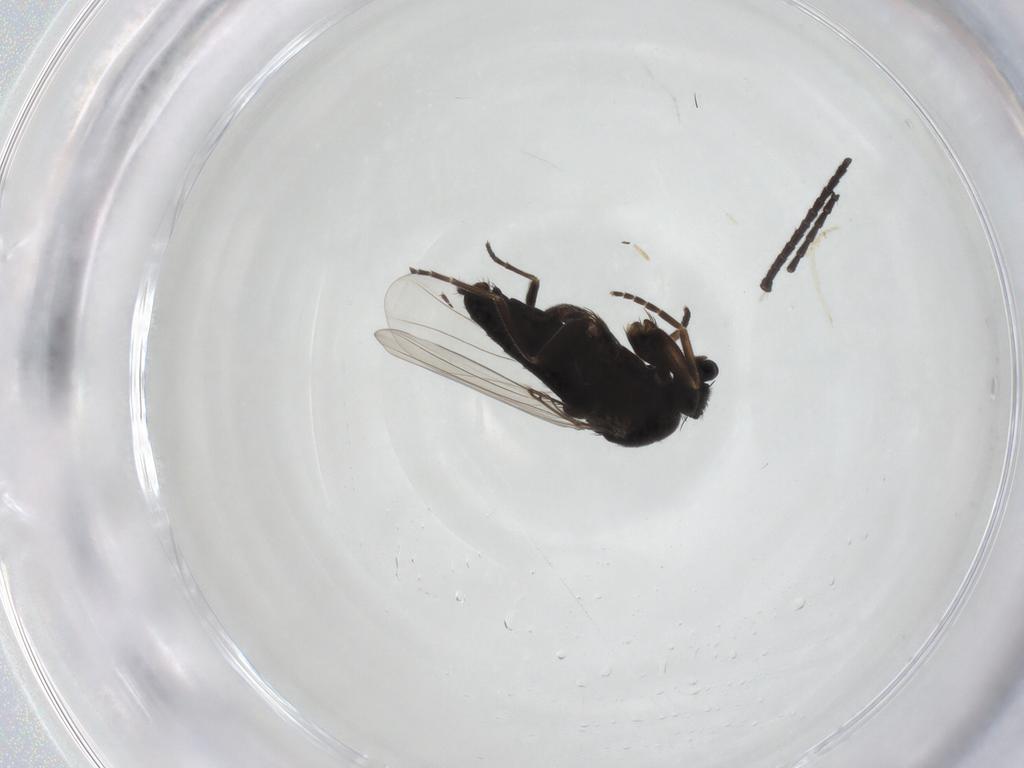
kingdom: Animalia
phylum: Arthropoda
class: Insecta
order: Diptera
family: Phoridae
